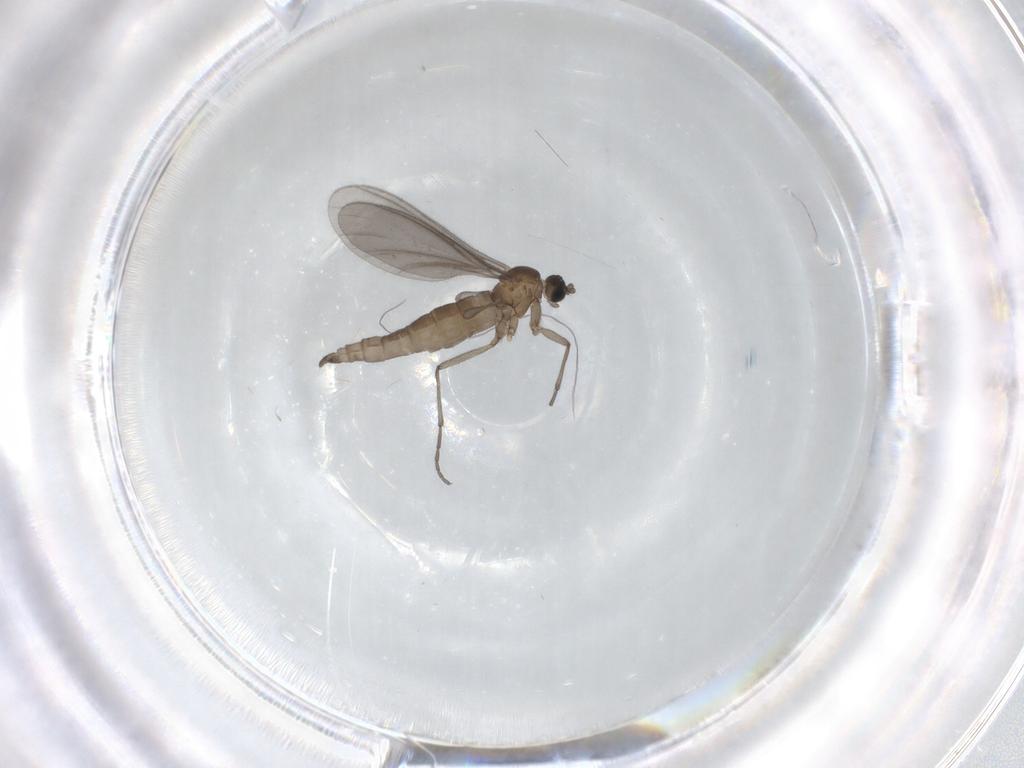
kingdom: Animalia
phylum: Arthropoda
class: Insecta
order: Diptera
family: Sciaridae
